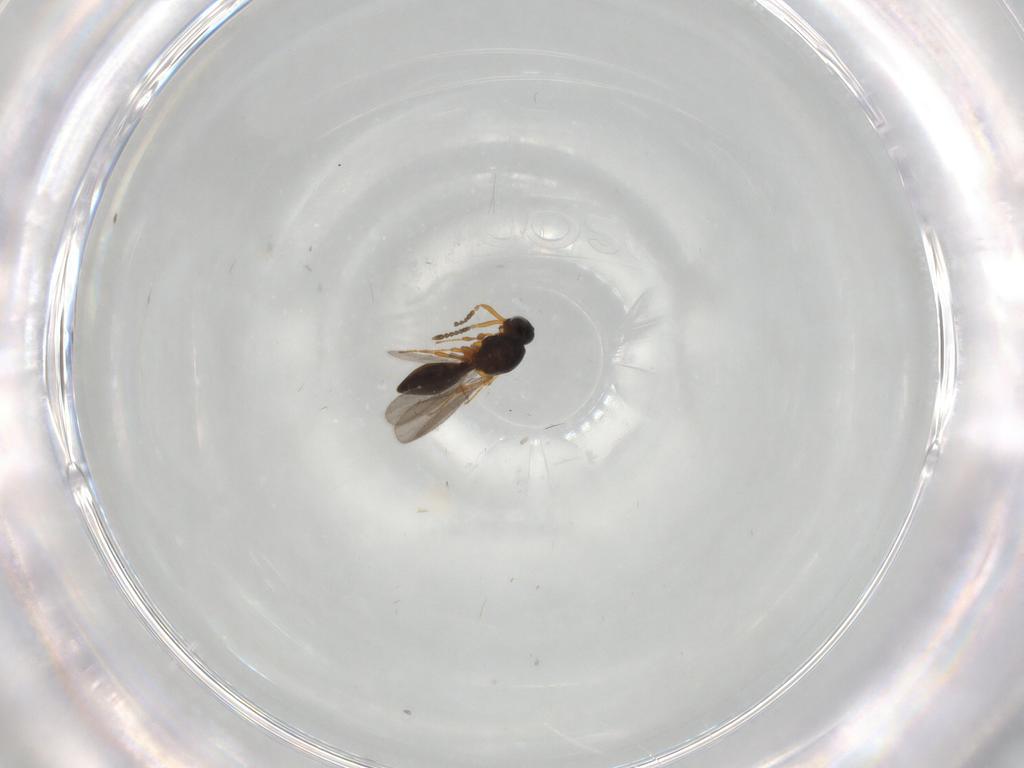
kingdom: Animalia
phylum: Arthropoda
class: Insecta
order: Hymenoptera
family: Platygastridae
